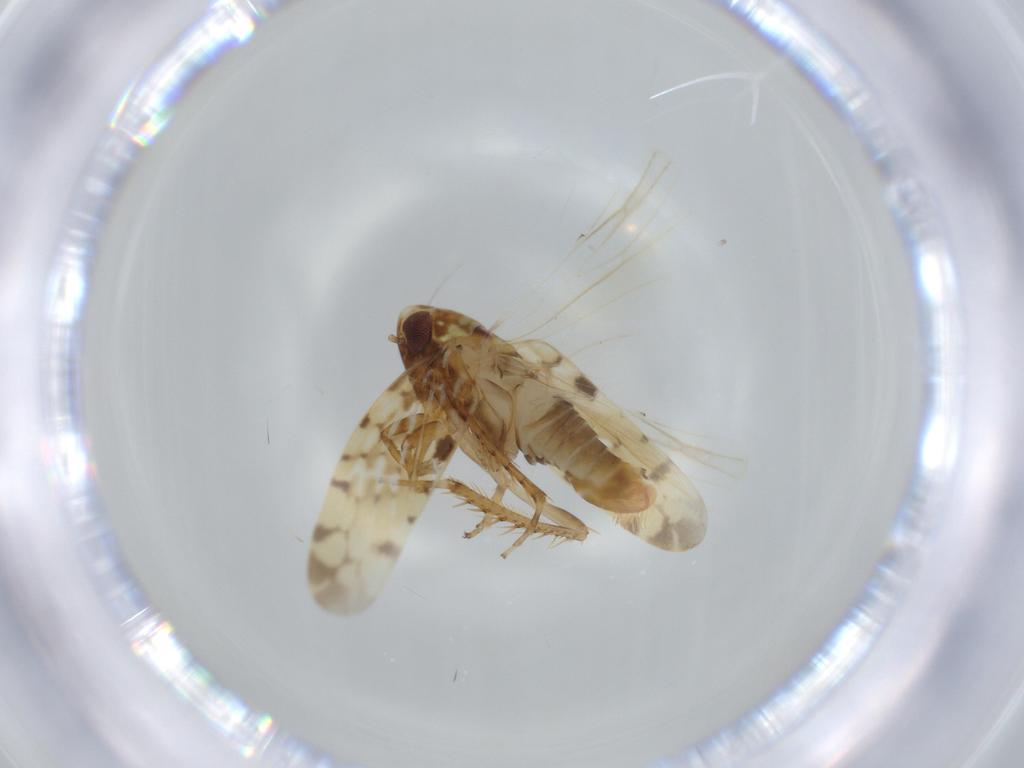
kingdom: Animalia
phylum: Arthropoda
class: Insecta
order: Hemiptera
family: Cicadellidae
